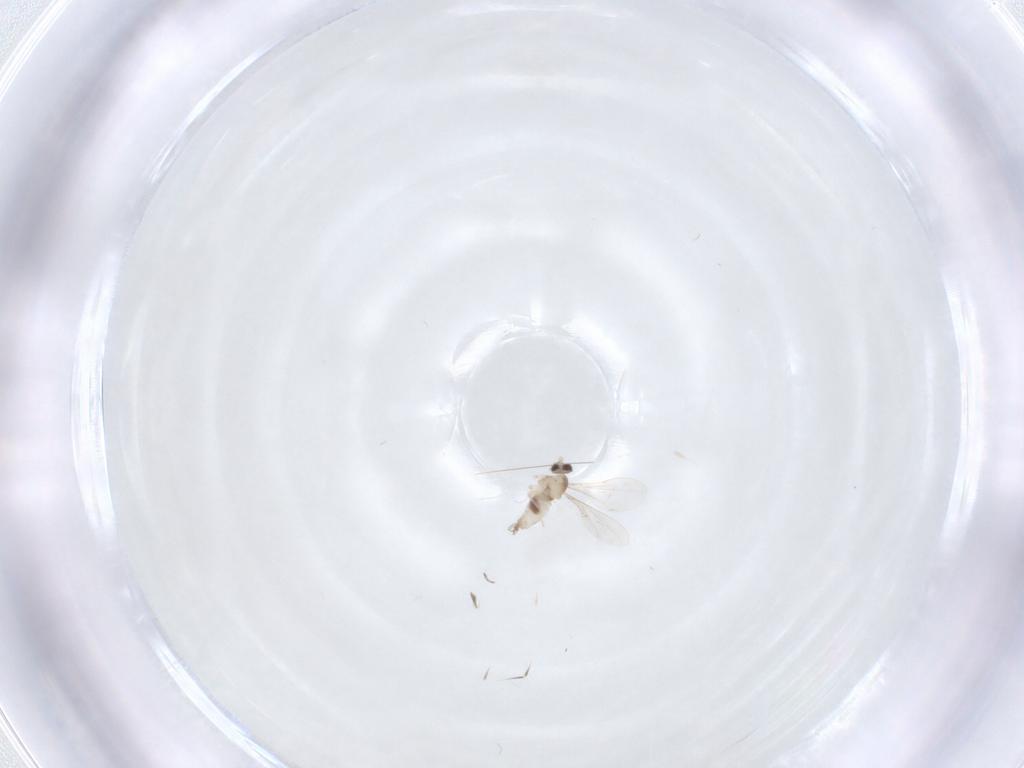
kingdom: Animalia
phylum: Arthropoda
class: Insecta
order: Diptera
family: Cecidomyiidae
